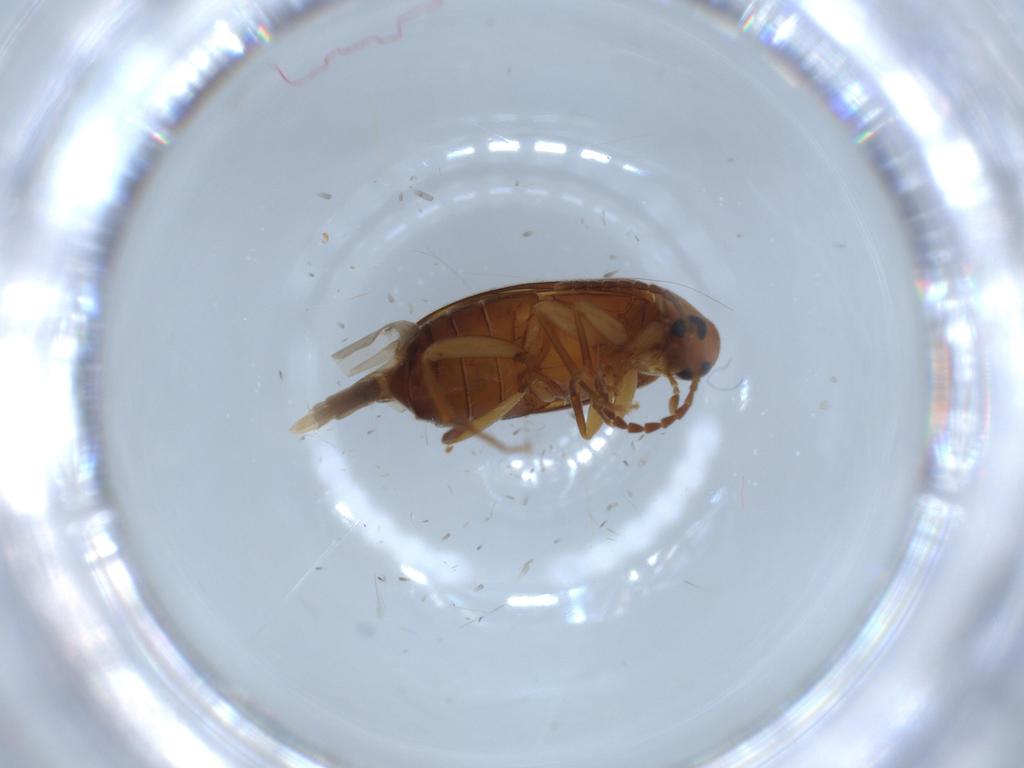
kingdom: Animalia
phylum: Arthropoda
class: Insecta
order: Coleoptera
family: Scraptiidae
